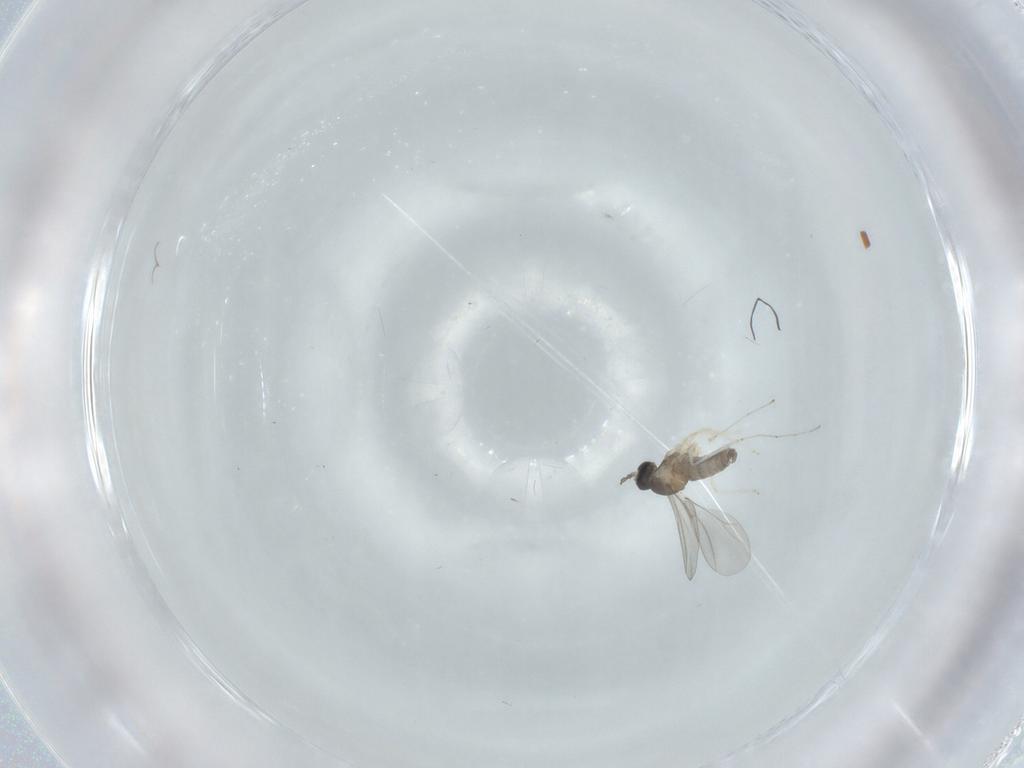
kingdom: Animalia
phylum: Arthropoda
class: Insecta
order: Diptera
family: Cecidomyiidae
